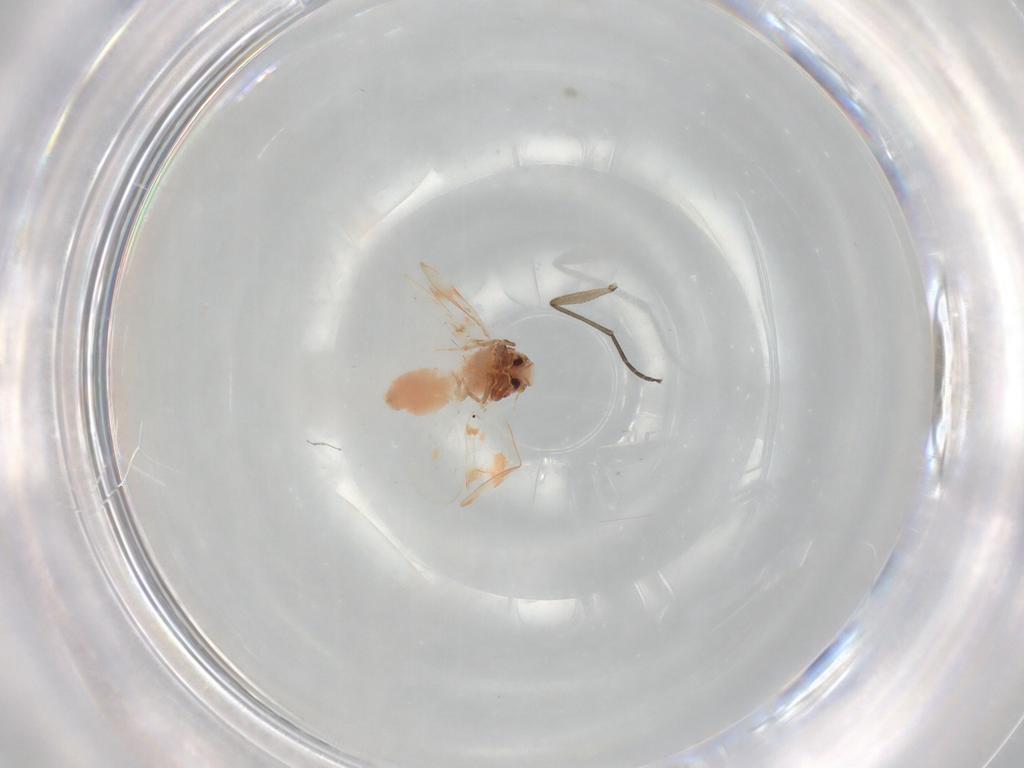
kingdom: Animalia
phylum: Arthropoda
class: Insecta
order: Hemiptera
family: Aleyrodidae
